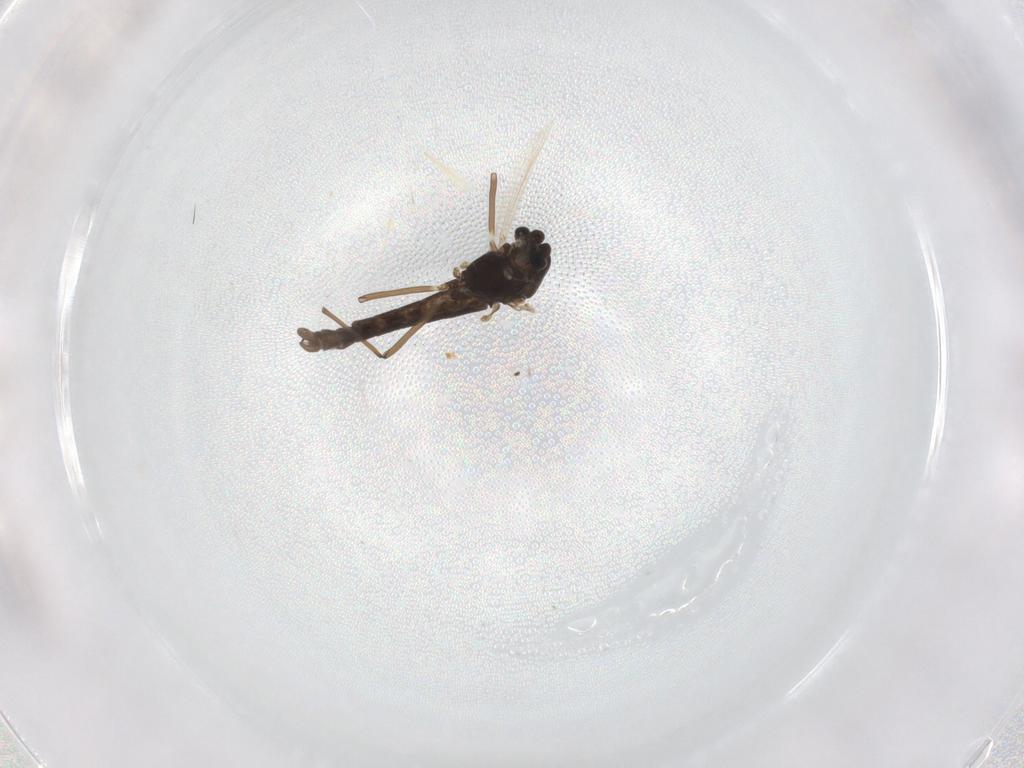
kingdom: Animalia
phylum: Arthropoda
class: Insecta
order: Diptera
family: Chironomidae
